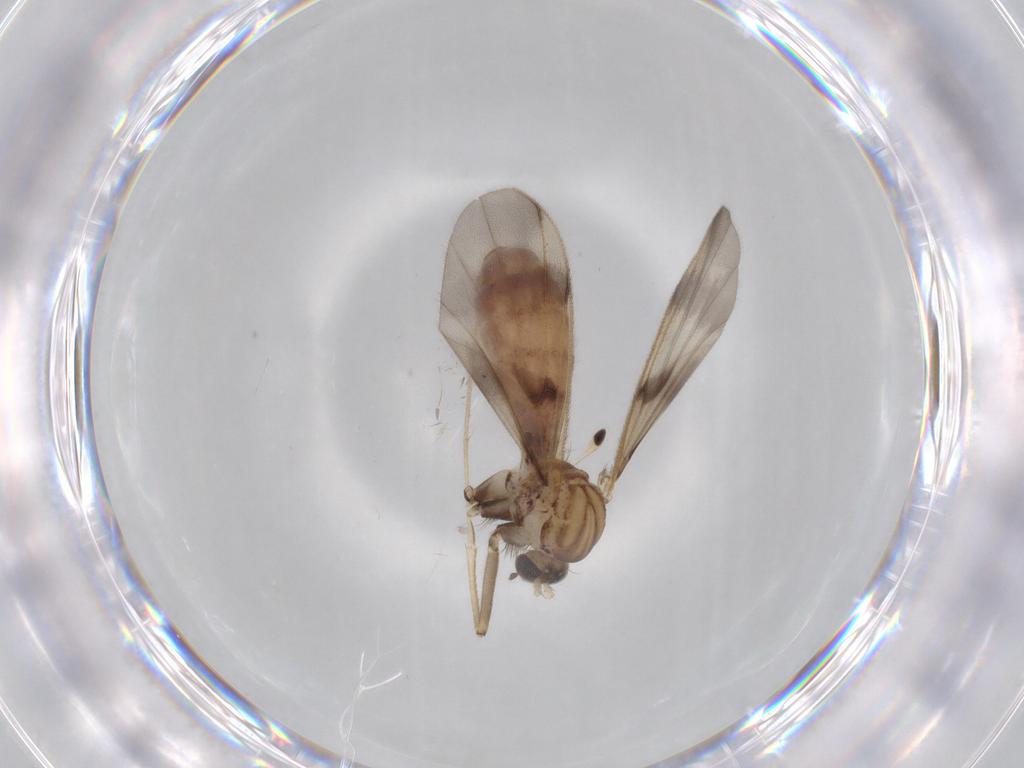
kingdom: Animalia
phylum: Arthropoda
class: Insecta
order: Diptera
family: Mycetophilidae
